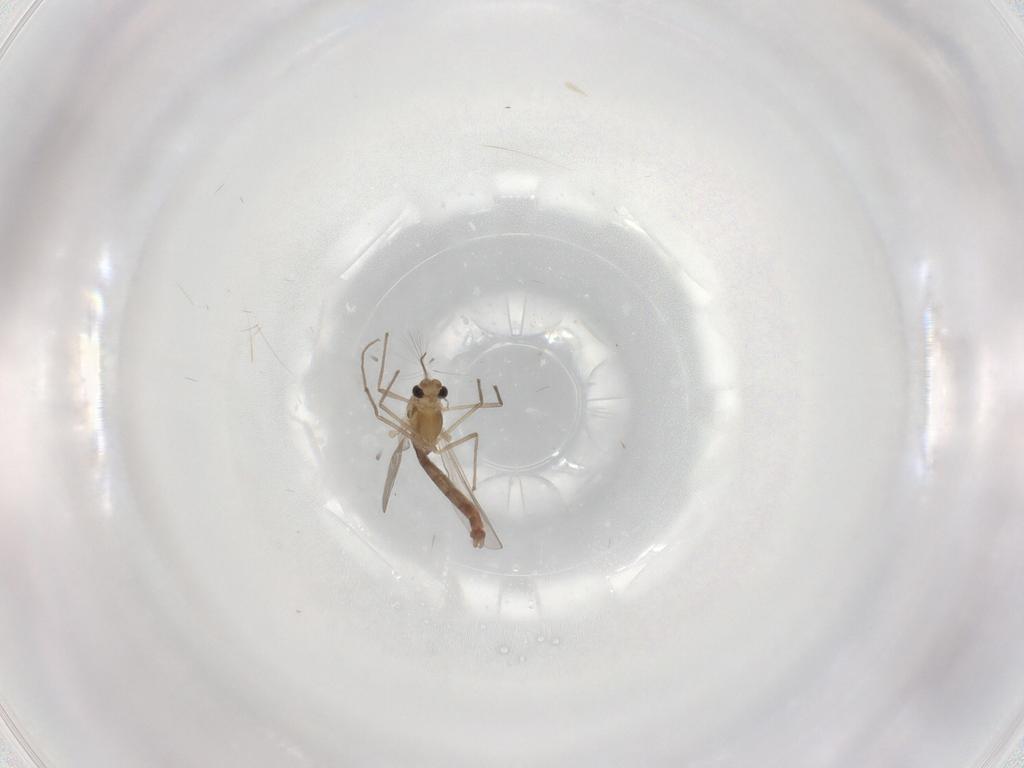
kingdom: Animalia
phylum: Arthropoda
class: Insecta
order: Diptera
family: Chironomidae
